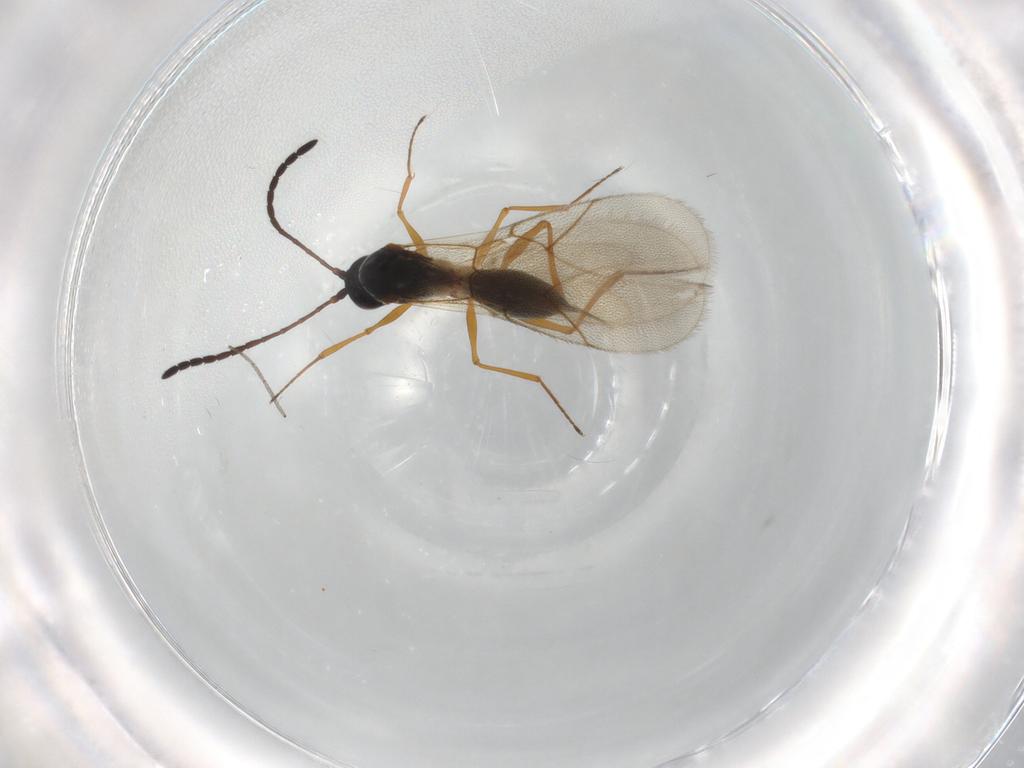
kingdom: Animalia
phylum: Arthropoda
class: Insecta
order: Hymenoptera
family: Figitidae
